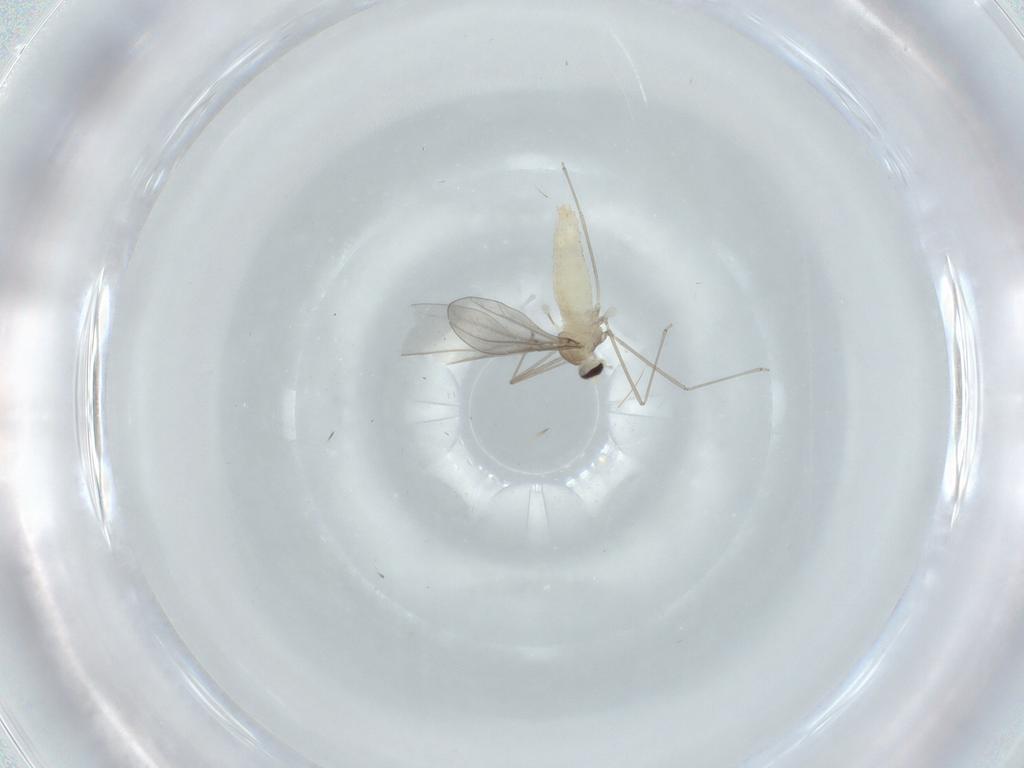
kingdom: Animalia
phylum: Arthropoda
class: Insecta
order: Diptera
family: Cecidomyiidae
